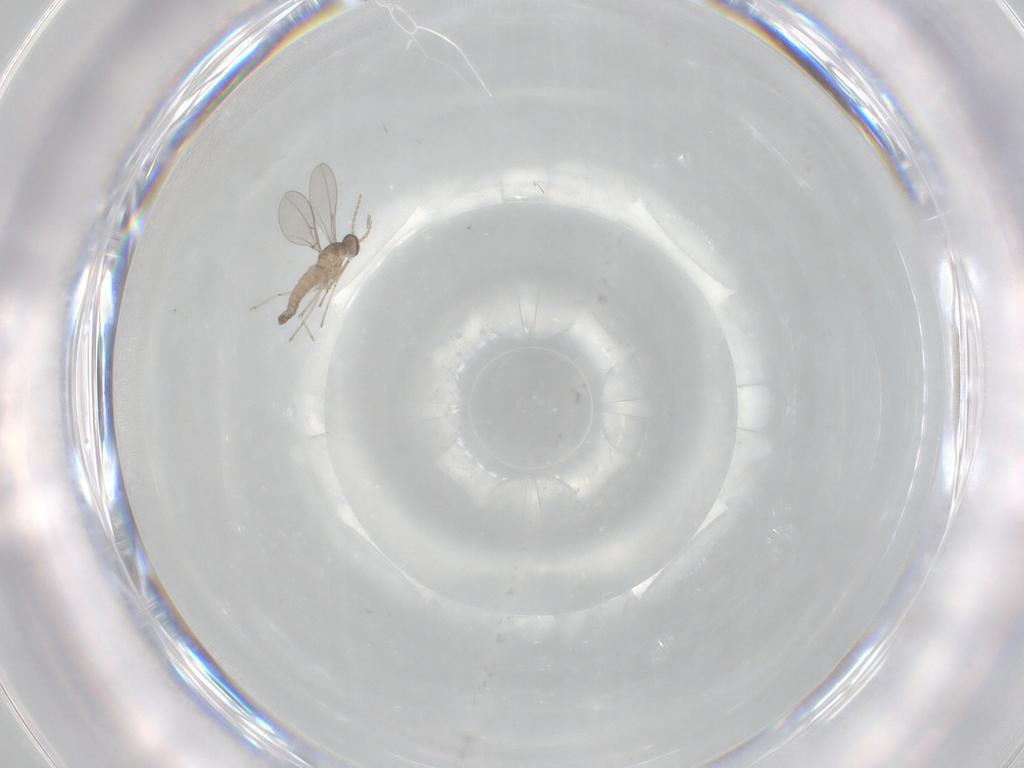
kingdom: Animalia
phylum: Arthropoda
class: Insecta
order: Diptera
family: Cecidomyiidae
